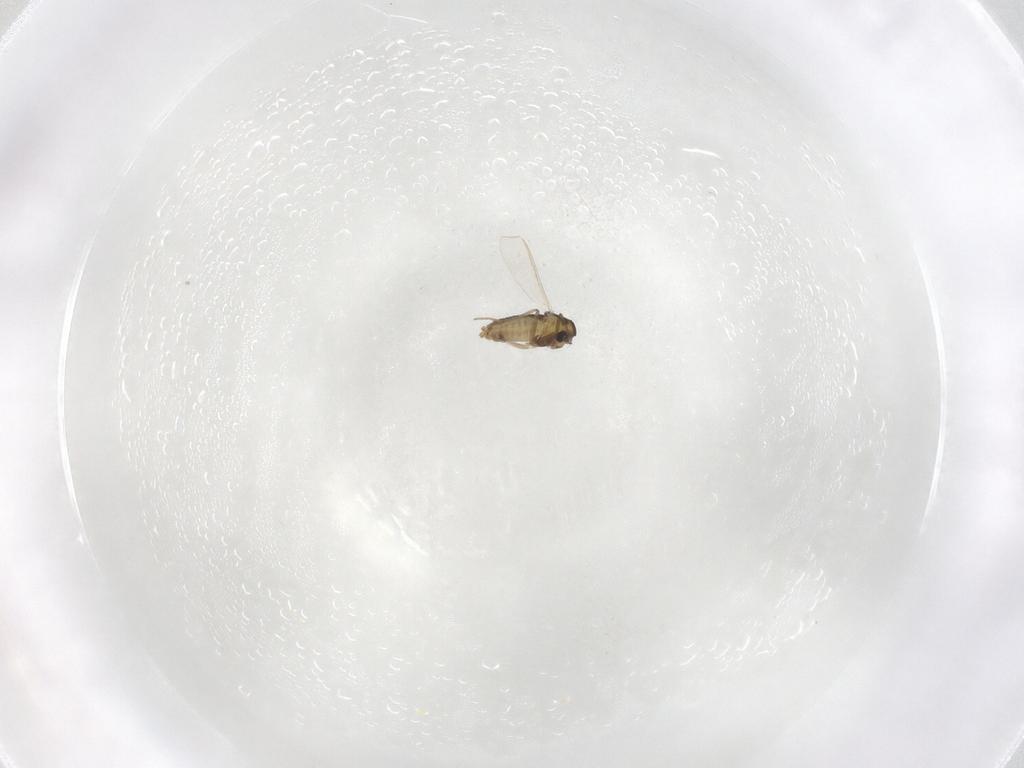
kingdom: Animalia
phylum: Arthropoda
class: Insecta
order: Diptera
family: Chironomidae
